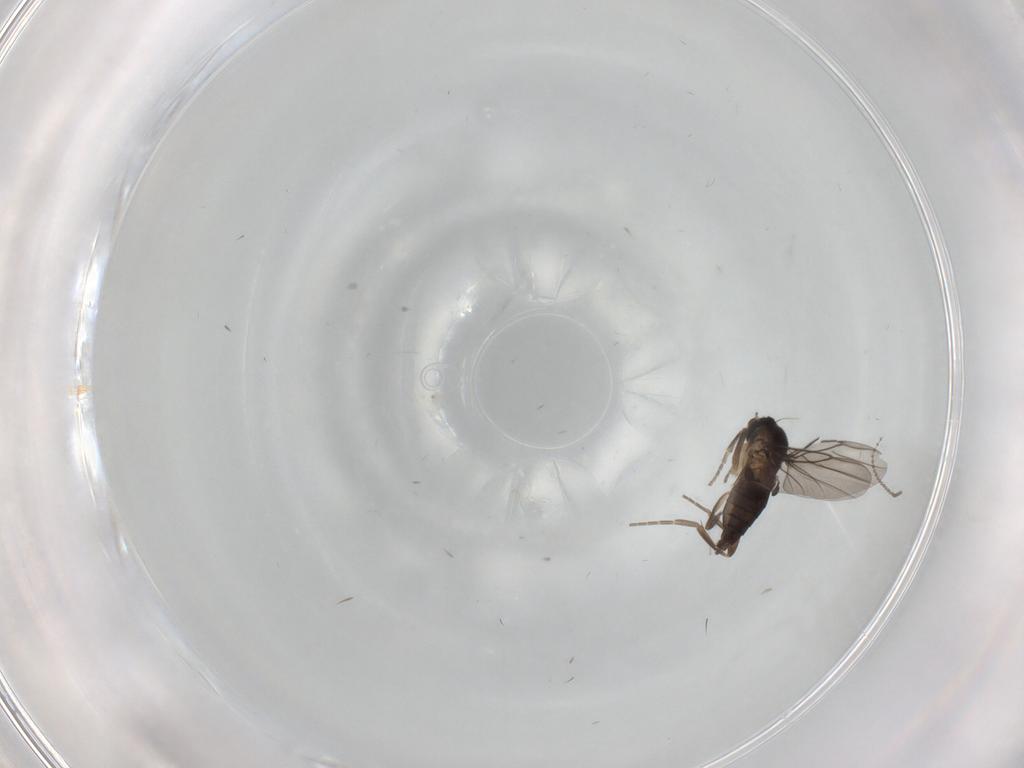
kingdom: Animalia
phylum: Arthropoda
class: Insecta
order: Diptera
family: Phoridae
